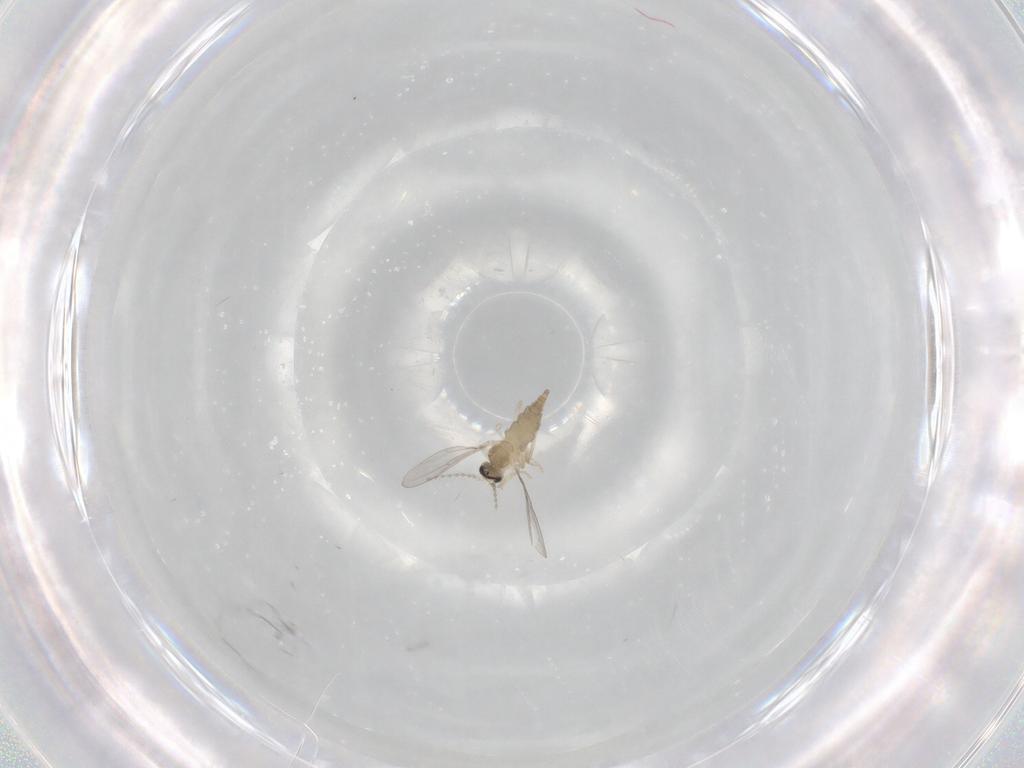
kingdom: Animalia
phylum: Arthropoda
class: Insecta
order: Diptera
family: Cecidomyiidae
